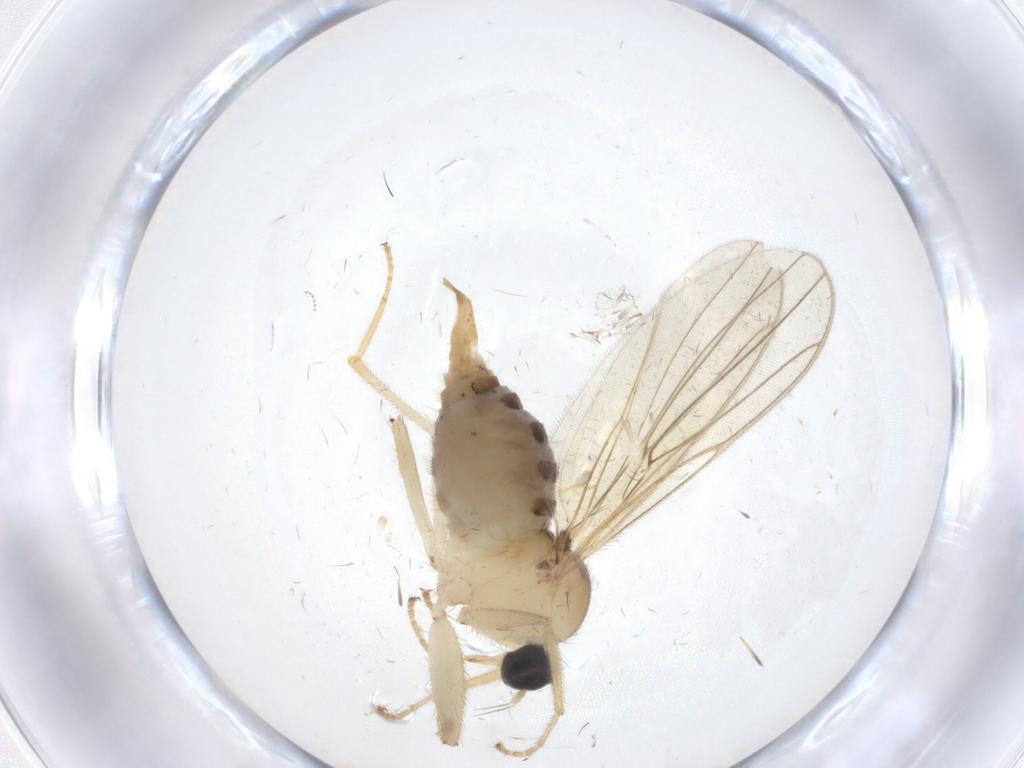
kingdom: Animalia
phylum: Arthropoda
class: Insecta
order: Diptera
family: Hybotidae
